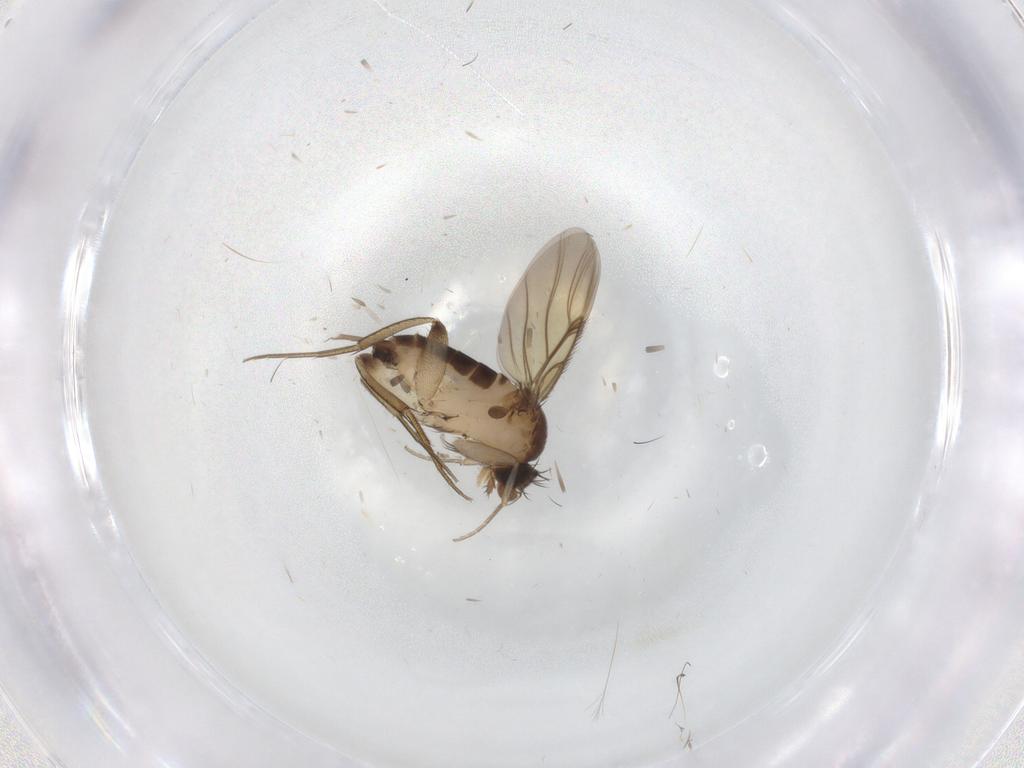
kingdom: Animalia
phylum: Arthropoda
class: Insecta
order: Diptera
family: Phoridae
